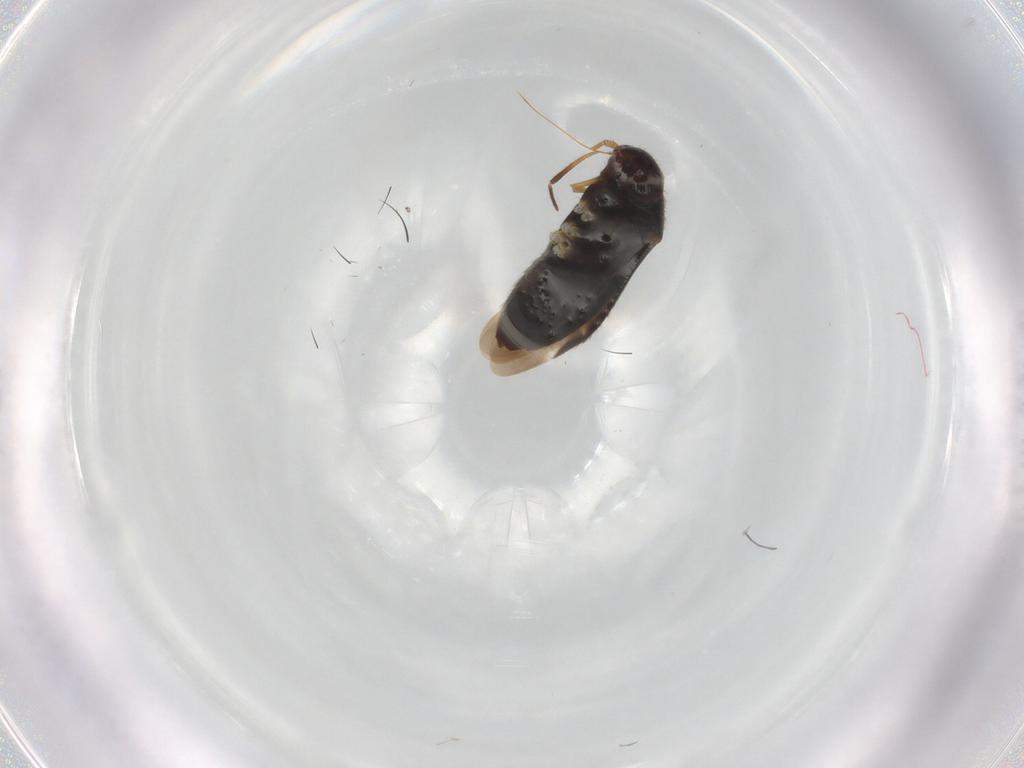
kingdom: Animalia
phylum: Arthropoda
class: Insecta
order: Hemiptera
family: Miridae
